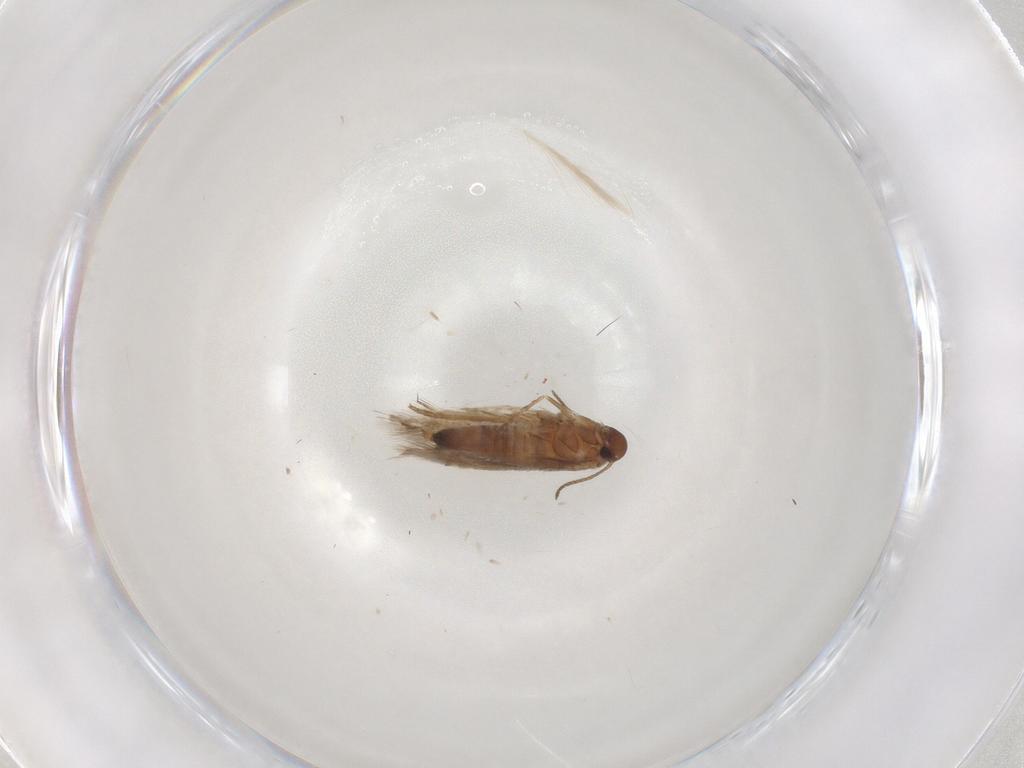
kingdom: Animalia
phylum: Arthropoda
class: Insecta
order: Lepidoptera
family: Heliozelidae
